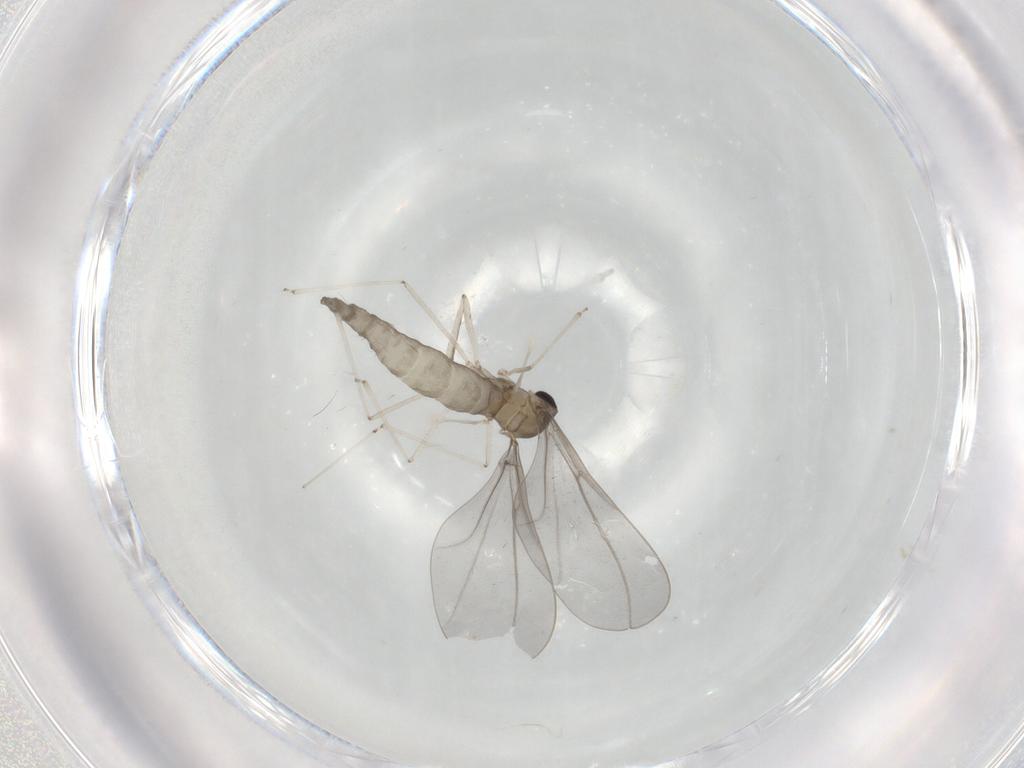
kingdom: Animalia
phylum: Arthropoda
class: Insecta
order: Diptera
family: Cecidomyiidae
